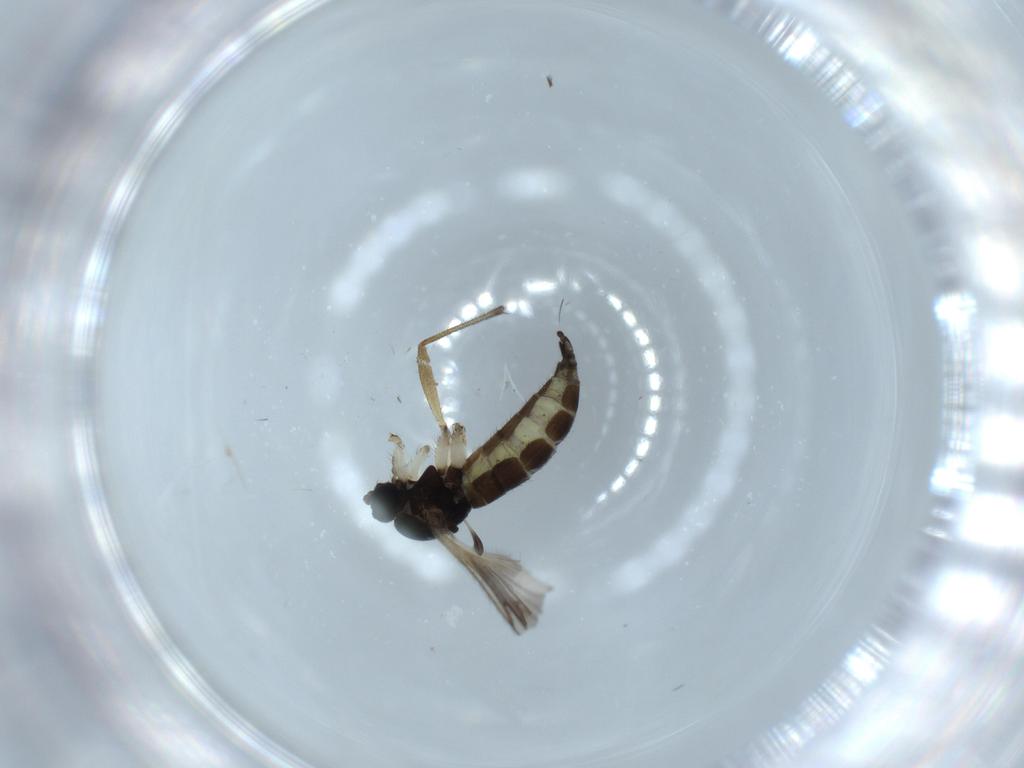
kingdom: Animalia
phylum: Arthropoda
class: Insecta
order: Diptera
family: Sciaridae
